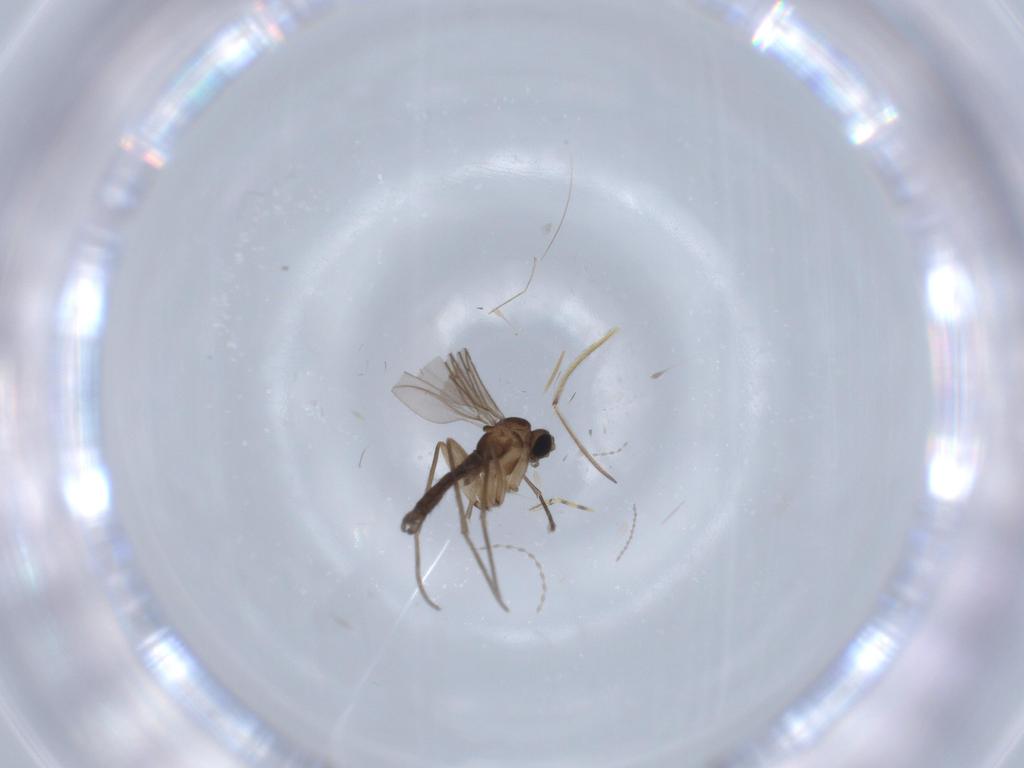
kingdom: Animalia
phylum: Arthropoda
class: Insecta
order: Diptera
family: Sciaridae
